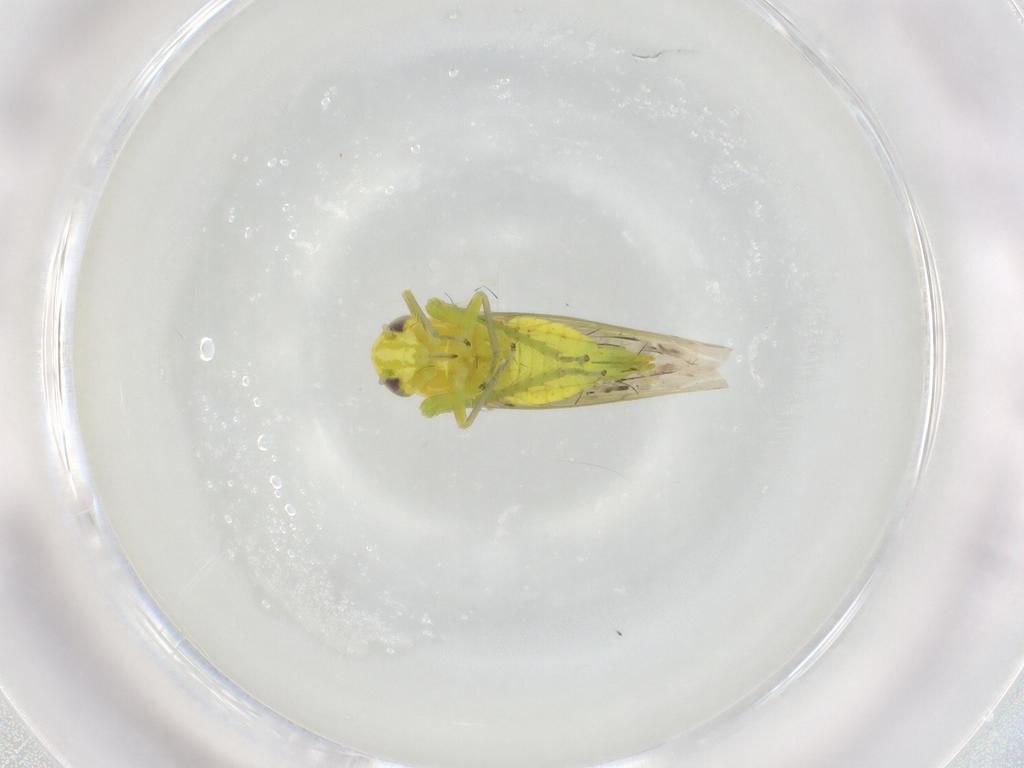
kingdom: Animalia
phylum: Arthropoda
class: Insecta
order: Hemiptera
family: Cicadellidae
